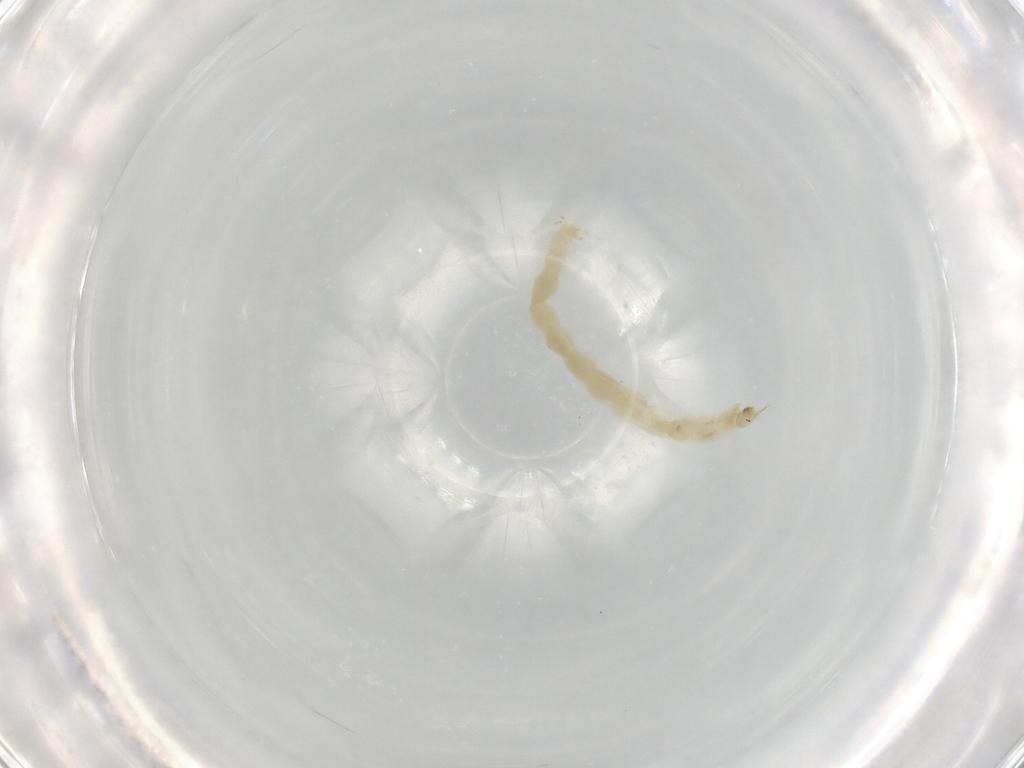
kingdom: Animalia
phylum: Arthropoda
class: Insecta
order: Diptera
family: Chironomidae
